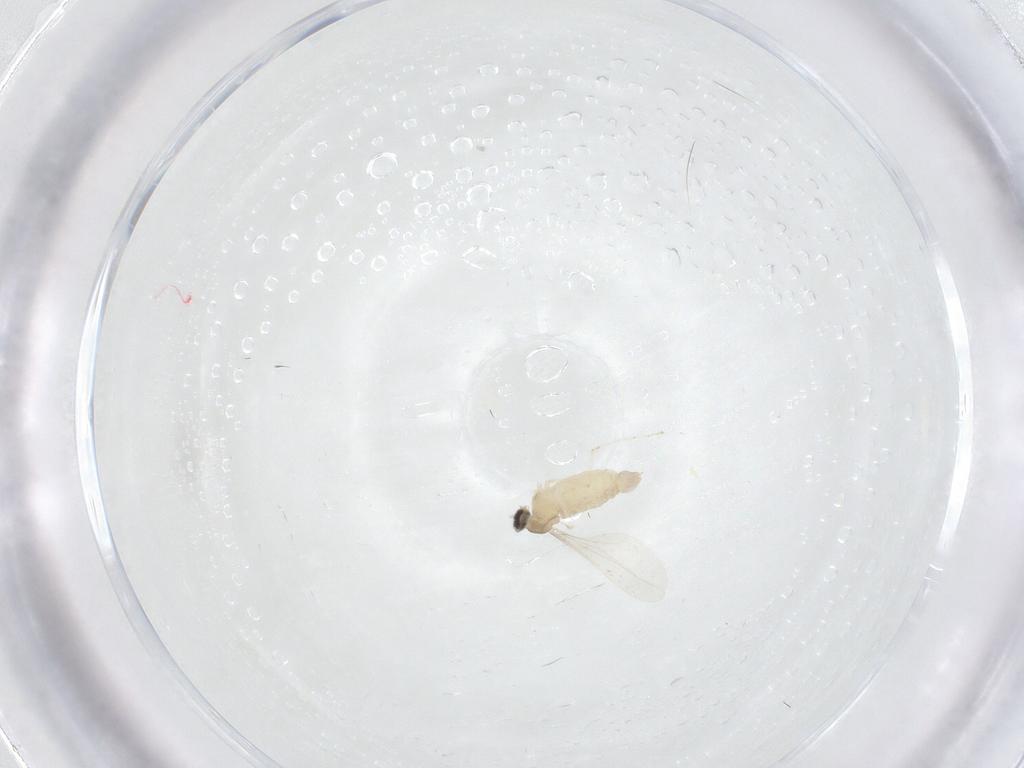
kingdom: Animalia
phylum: Arthropoda
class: Insecta
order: Diptera
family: Cecidomyiidae
